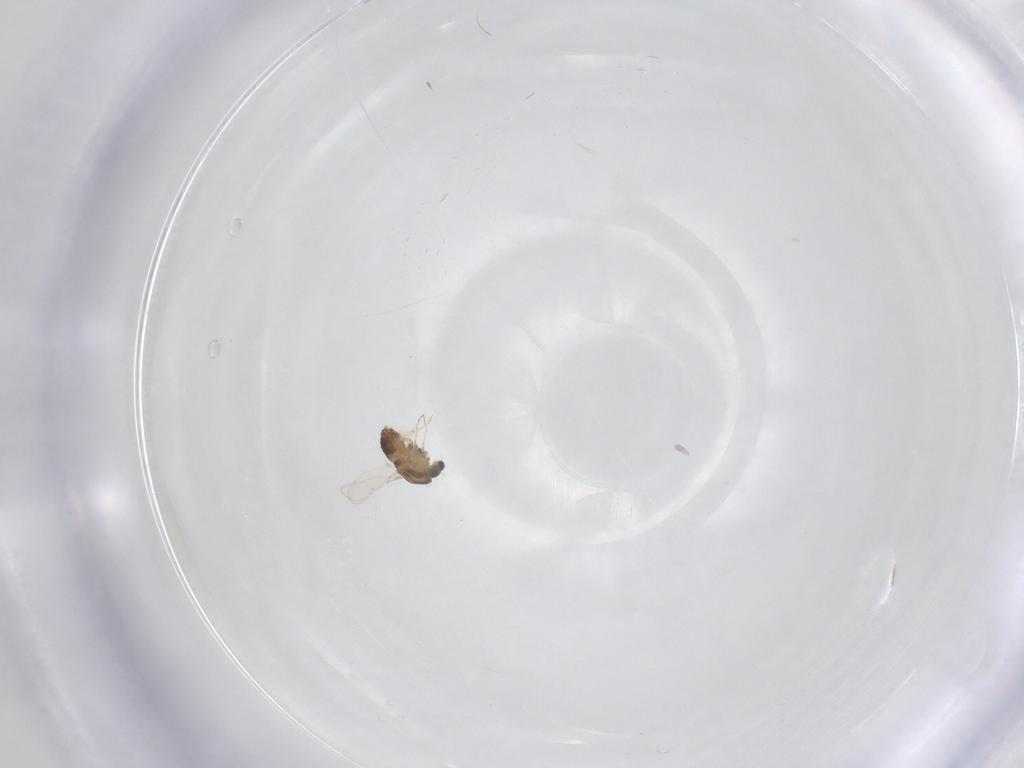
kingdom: Animalia
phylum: Arthropoda
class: Insecta
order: Diptera
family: Chironomidae
